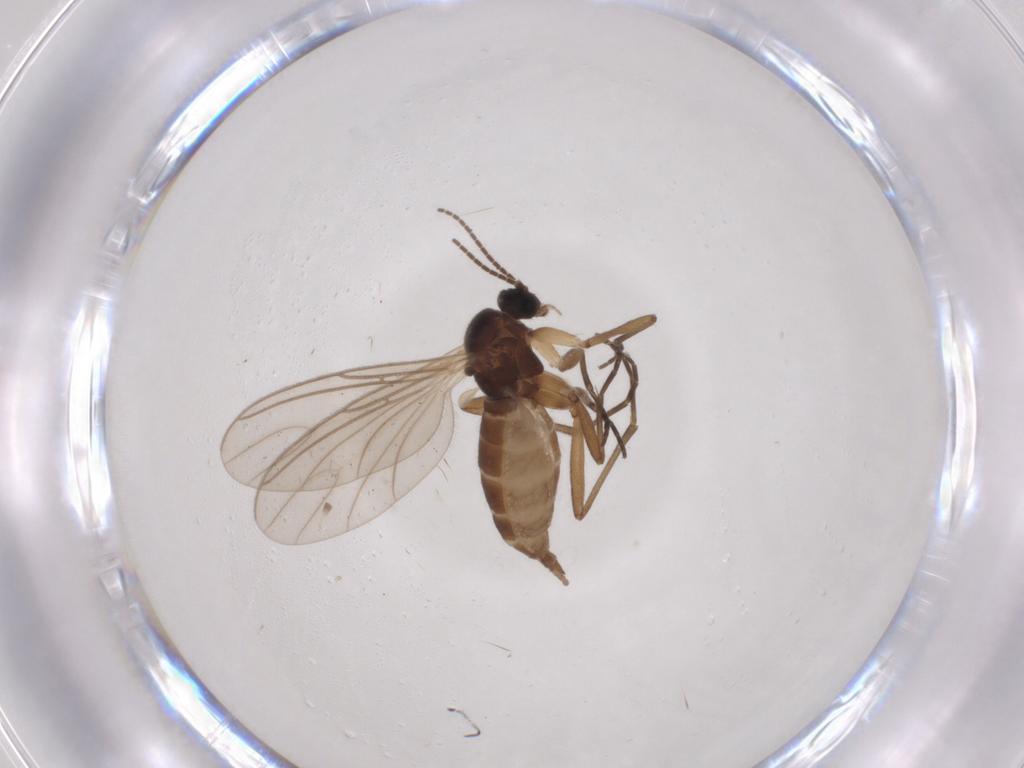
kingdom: Animalia
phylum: Arthropoda
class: Insecta
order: Diptera
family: Sciaridae
